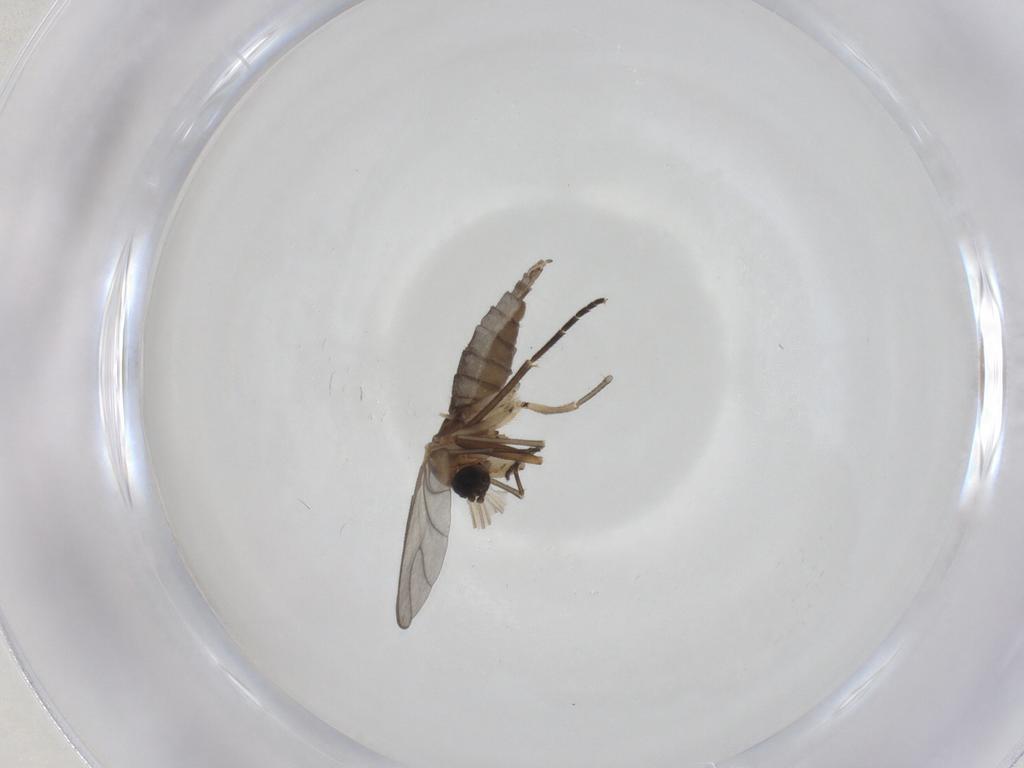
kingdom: Animalia
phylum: Arthropoda
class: Insecta
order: Diptera
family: Sciaridae
